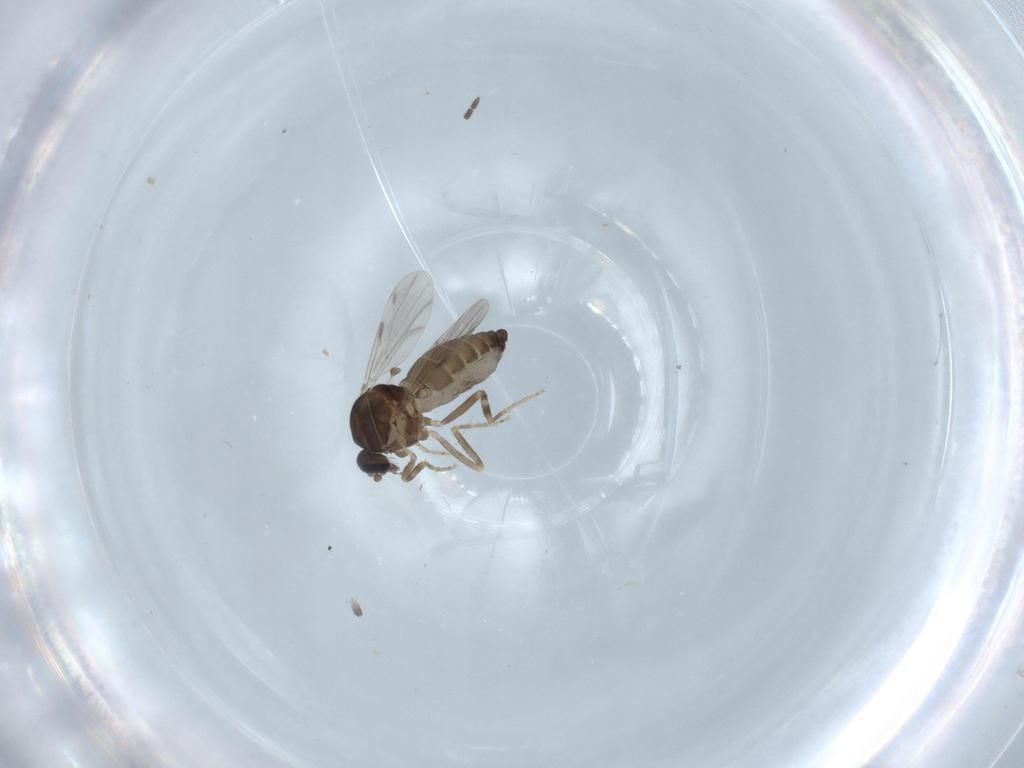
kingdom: Animalia
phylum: Arthropoda
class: Insecta
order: Diptera
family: Ceratopogonidae
